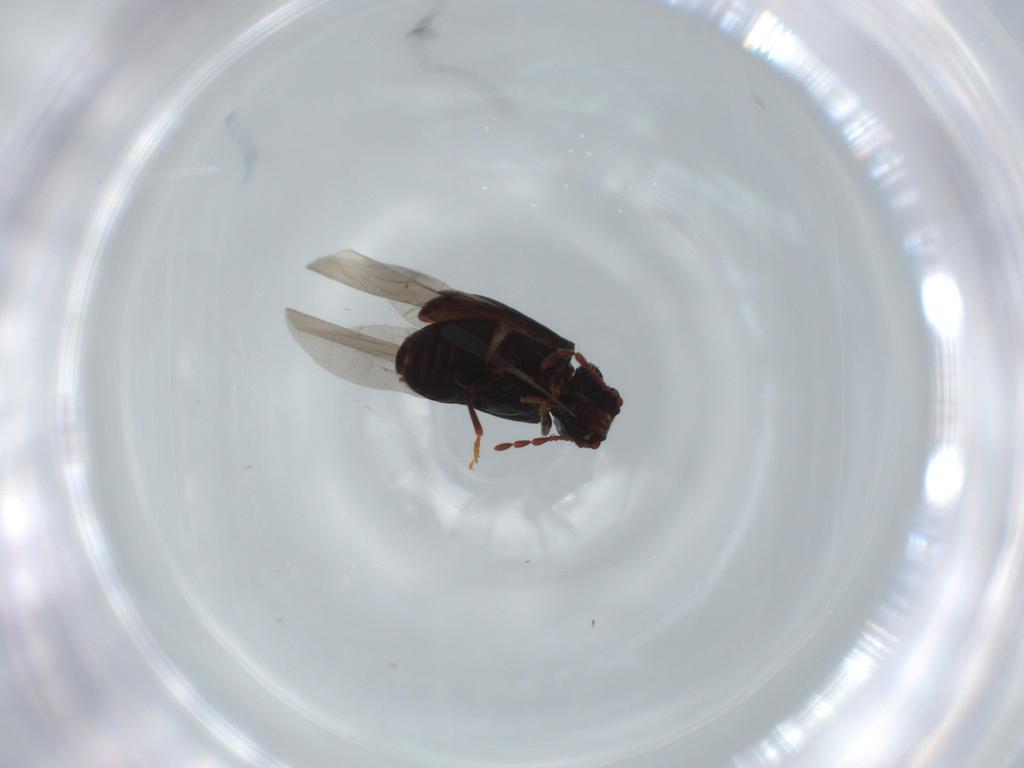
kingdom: Animalia
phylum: Arthropoda
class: Insecta
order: Coleoptera
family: Ptinidae
